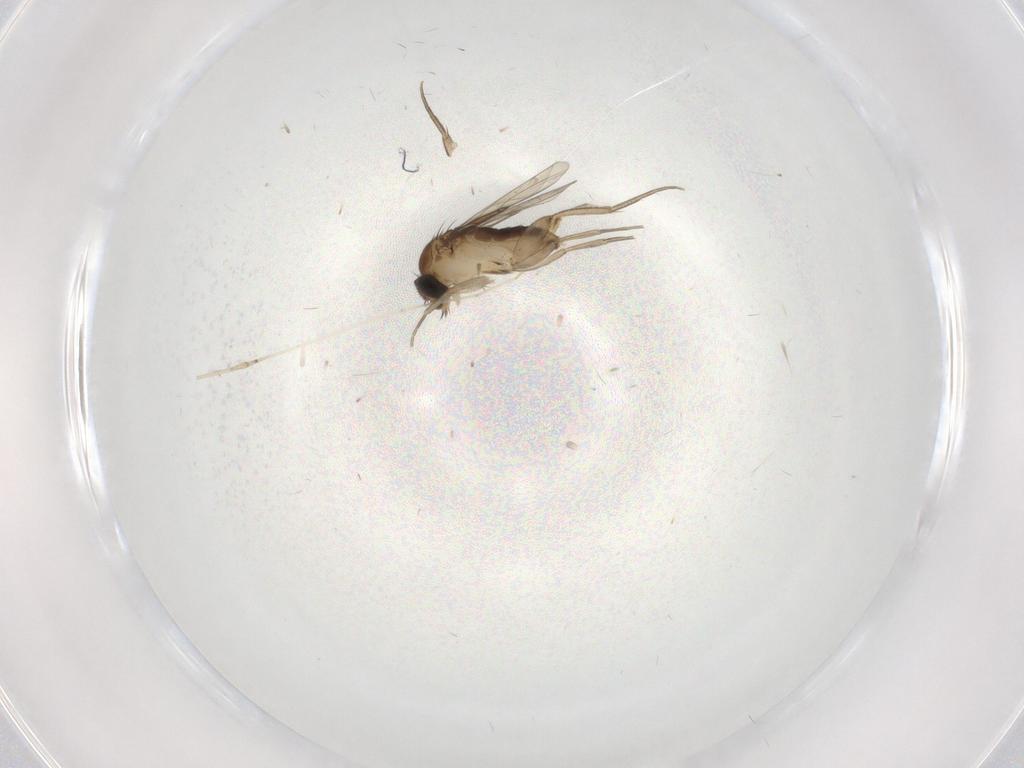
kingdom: Animalia
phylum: Arthropoda
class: Insecta
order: Diptera
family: Phoridae
